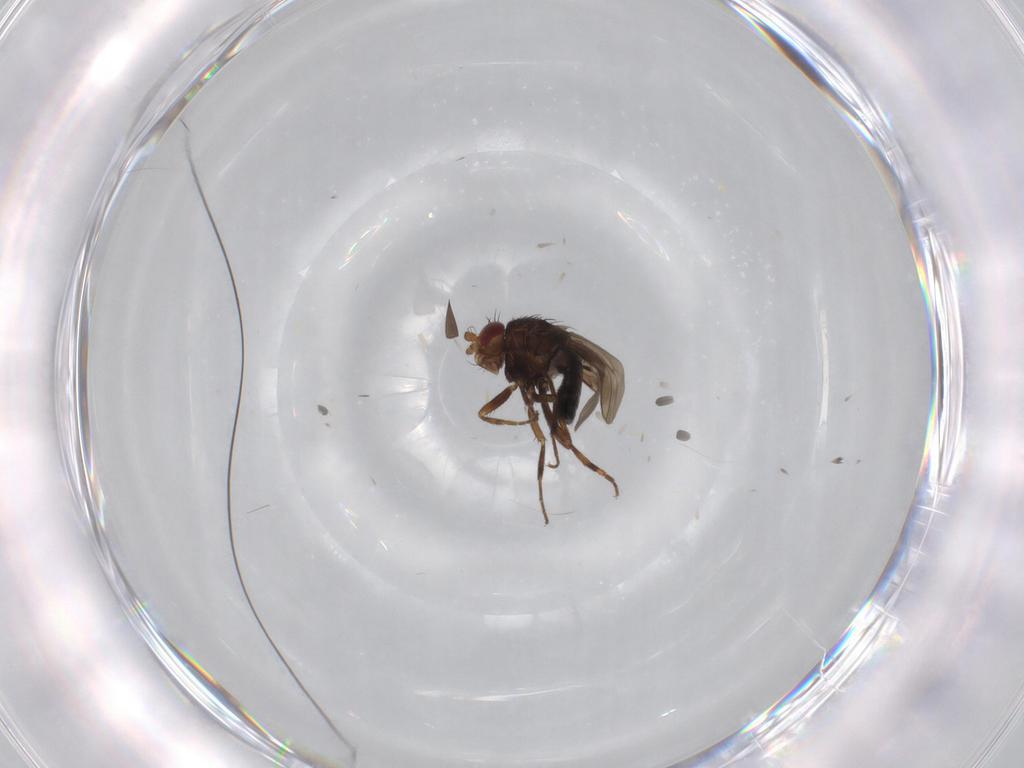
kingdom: Animalia
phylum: Arthropoda
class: Insecta
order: Diptera
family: Sphaeroceridae
